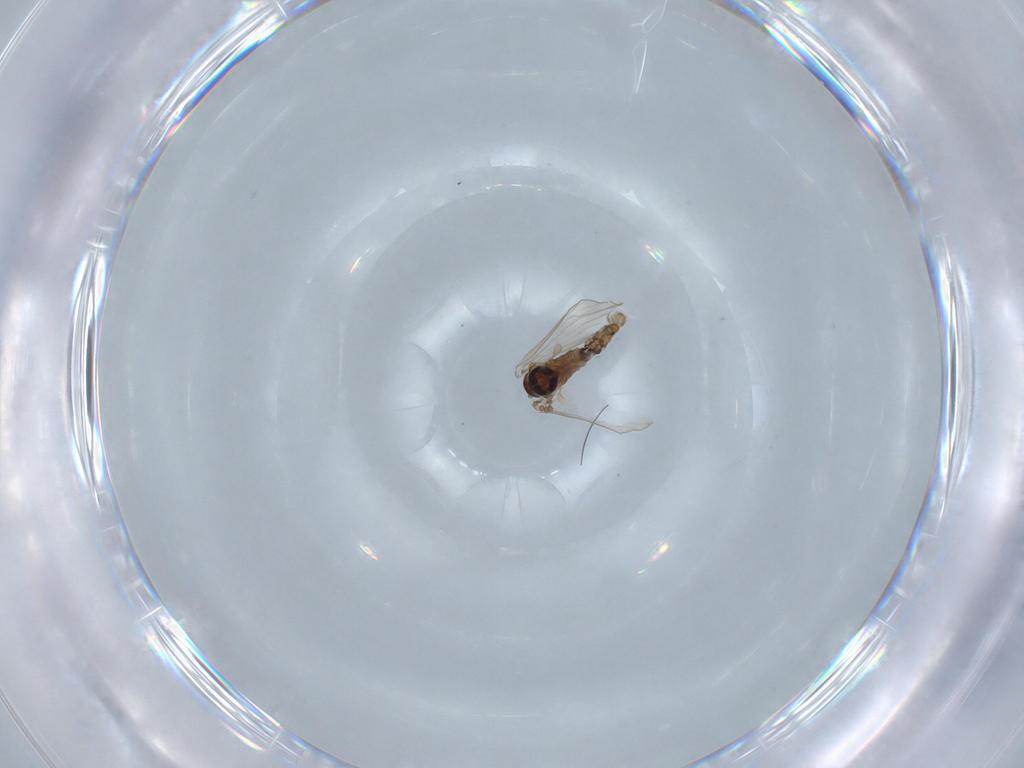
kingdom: Animalia
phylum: Arthropoda
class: Insecta
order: Diptera
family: Psychodidae
